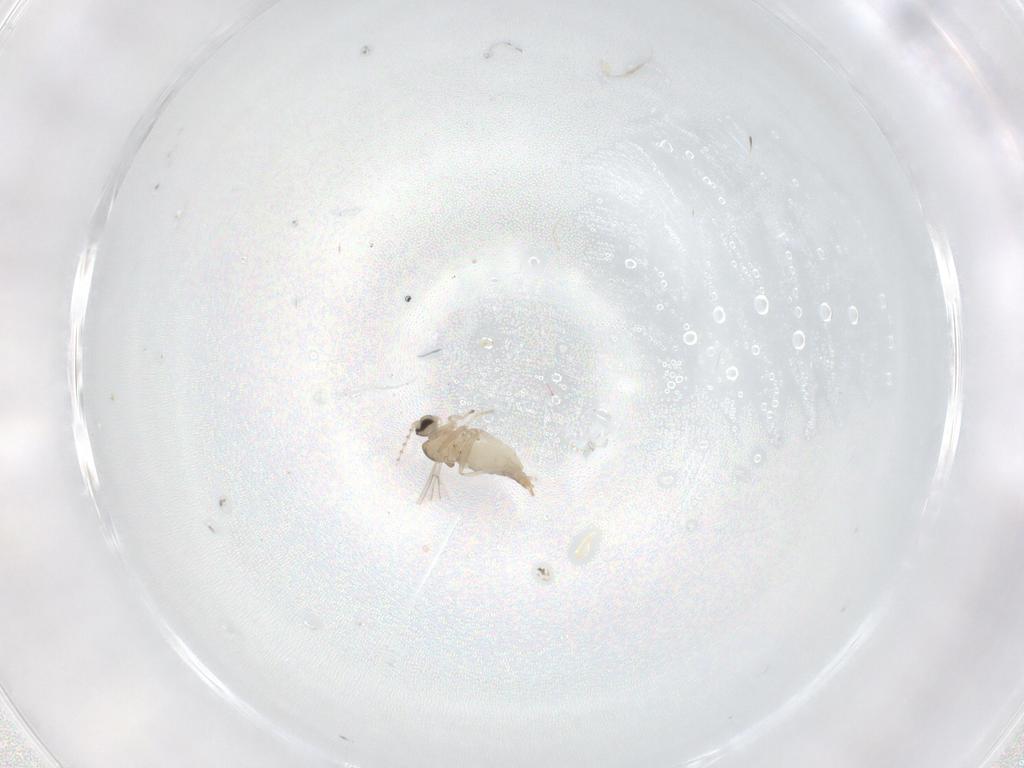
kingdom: Animalia
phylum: Arthropoda
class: Insecta
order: Diptera
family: Cecidomyiidae
